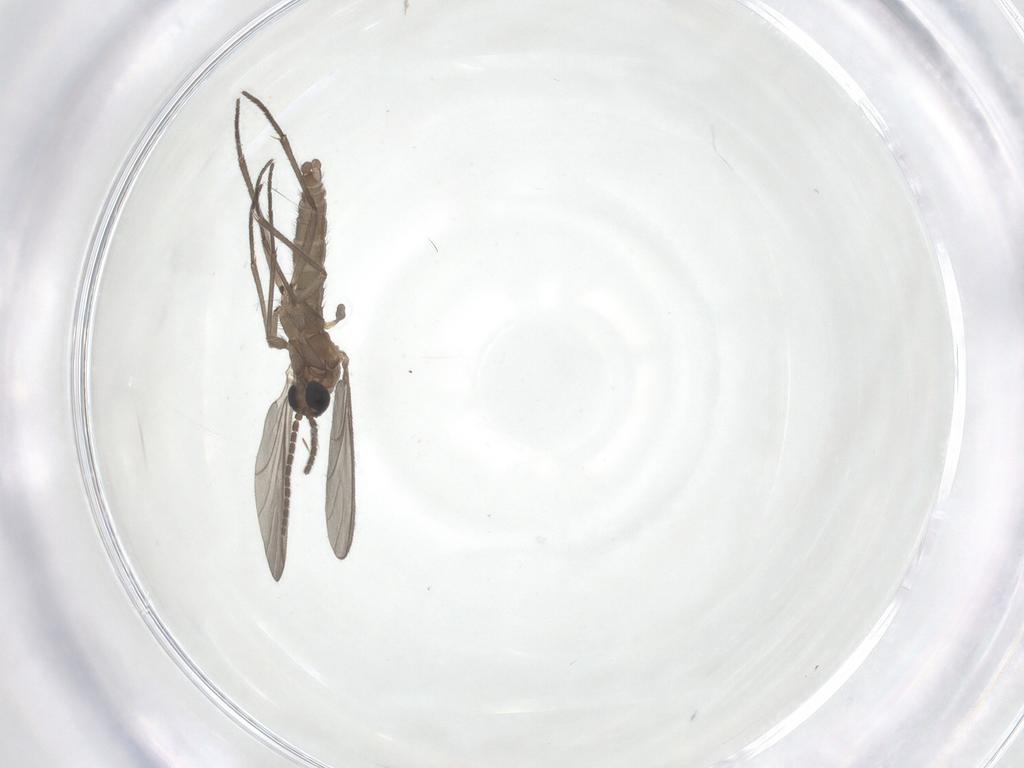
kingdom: Animalia
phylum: Arthropoda
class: Insecta
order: Diptera
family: Sciaridae
